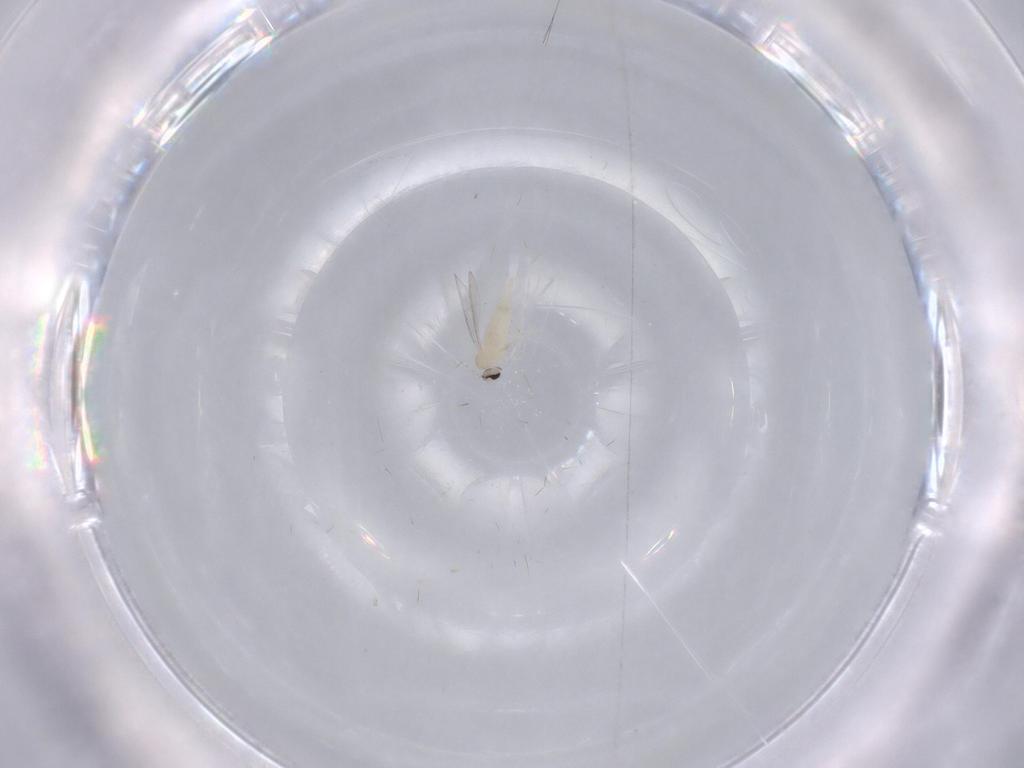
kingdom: Animalia
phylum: Arthropoda
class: Insecta
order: Diptera
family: Cecidomyiidae
